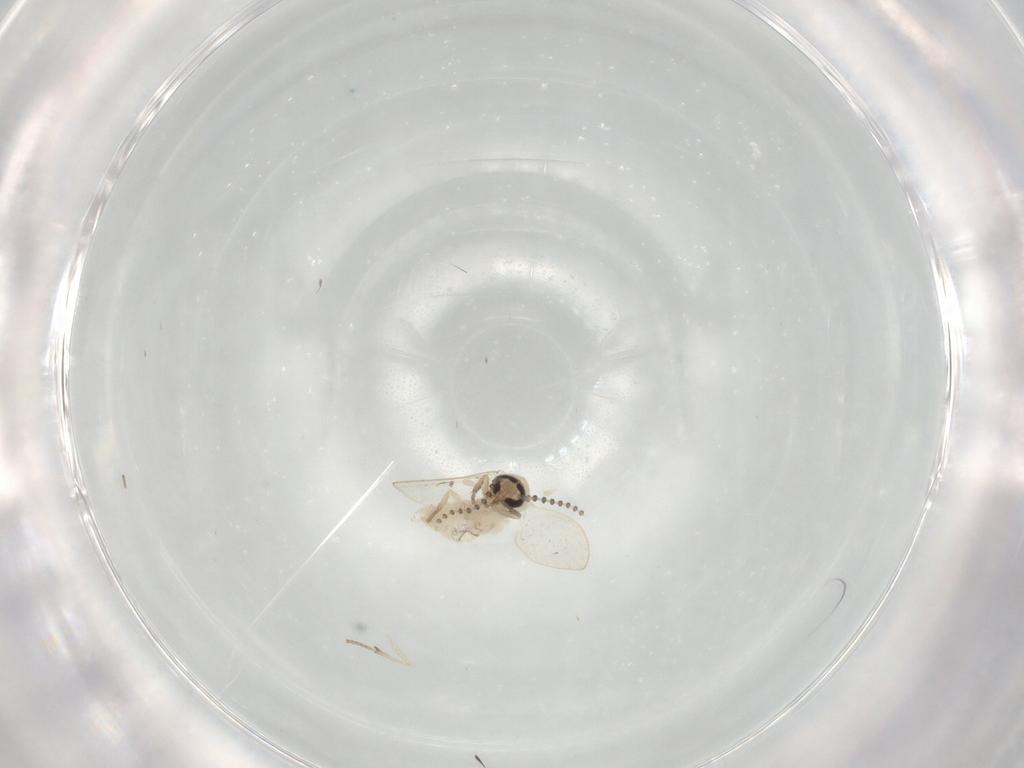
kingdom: Animalia
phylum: Arthropoda
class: Insecta
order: Diptera
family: Psychodidae
